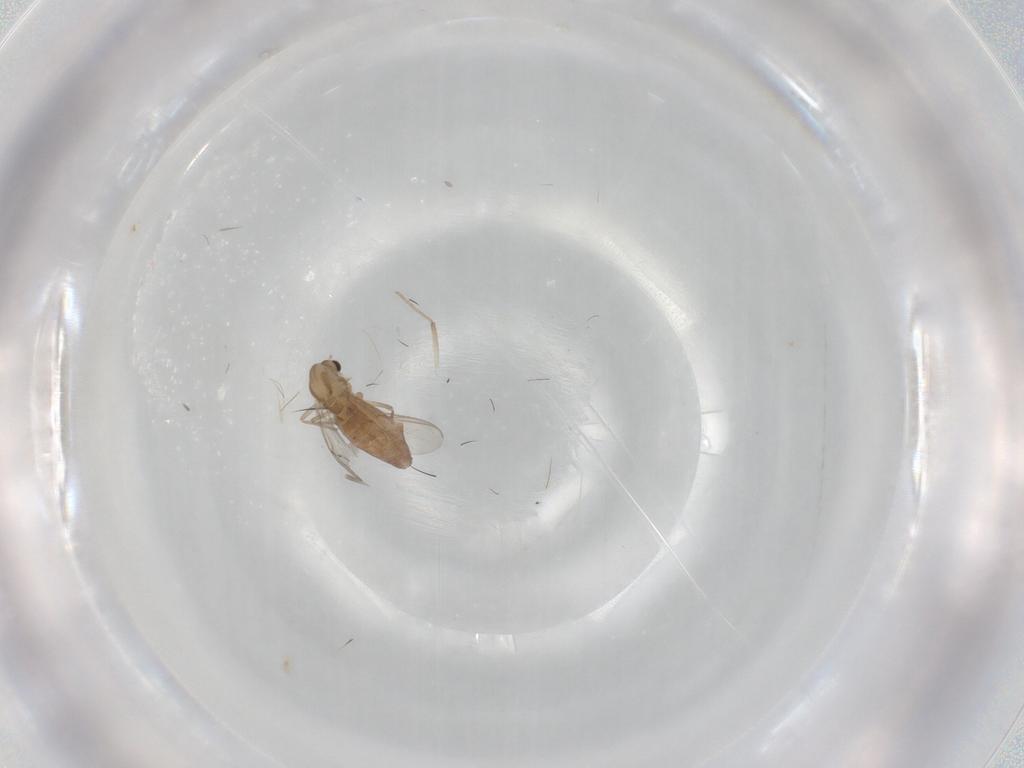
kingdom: Animalia
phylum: Arthropoda
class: Insecta
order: Diptera
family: Chironomidae
